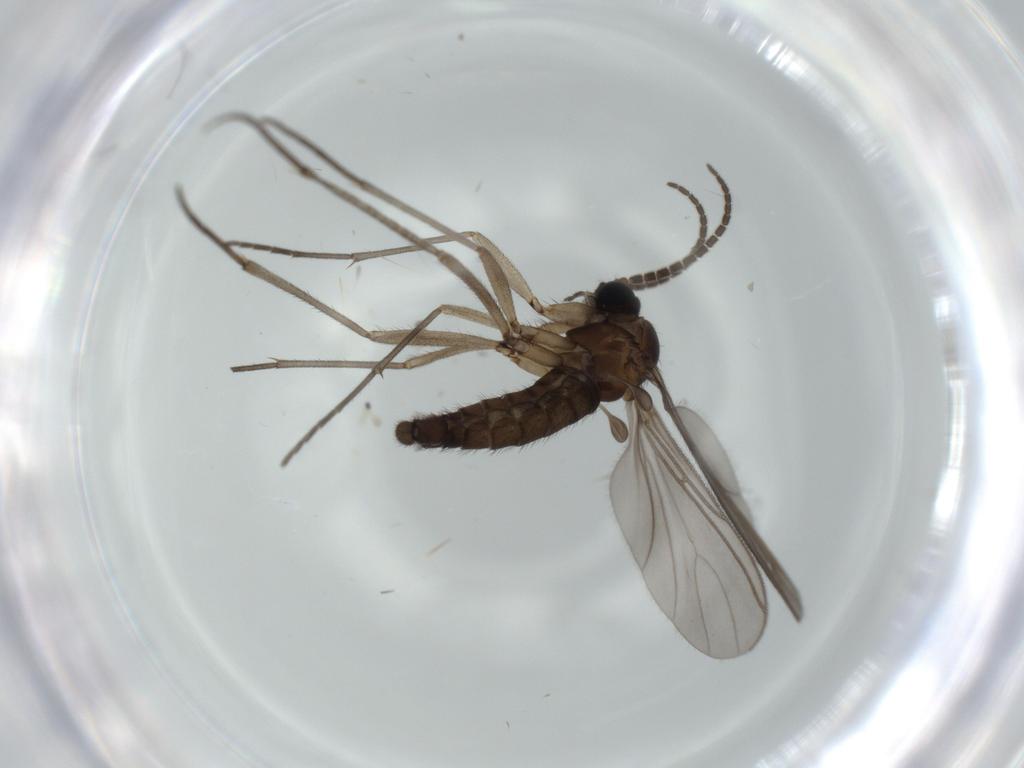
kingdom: Animalia
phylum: Arthropoda
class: Insecta
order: Diptera
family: Sciaridae
